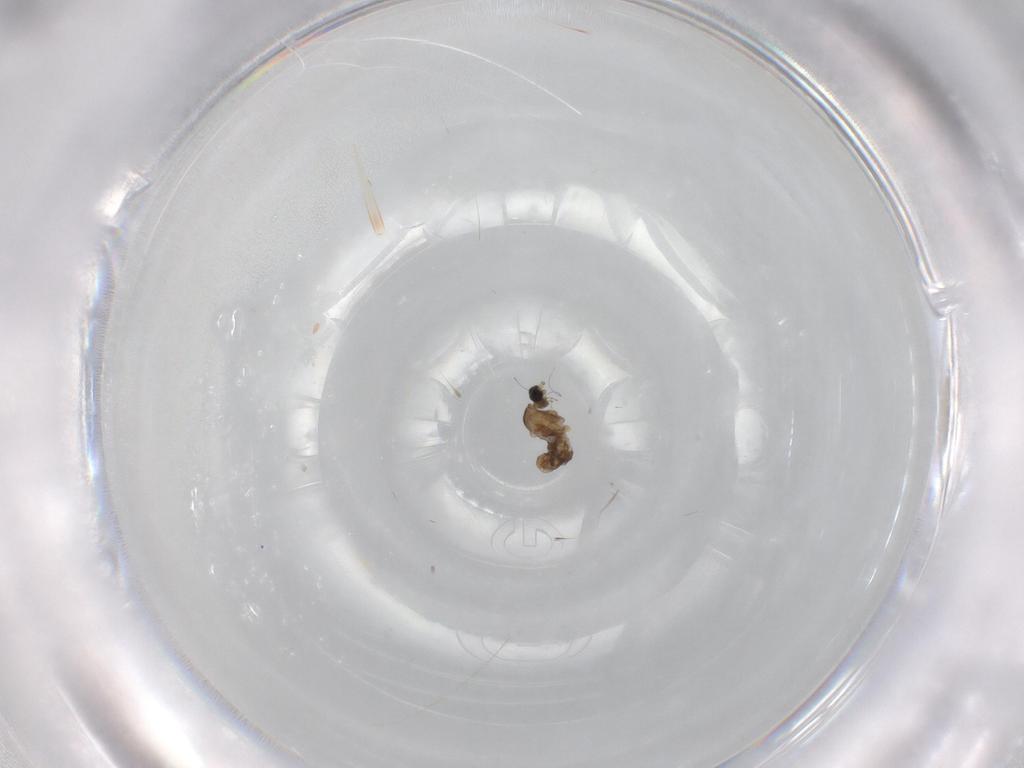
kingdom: Animalia
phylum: Arthropoda
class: Insecta
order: Diptera
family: Cecidomyiidae
